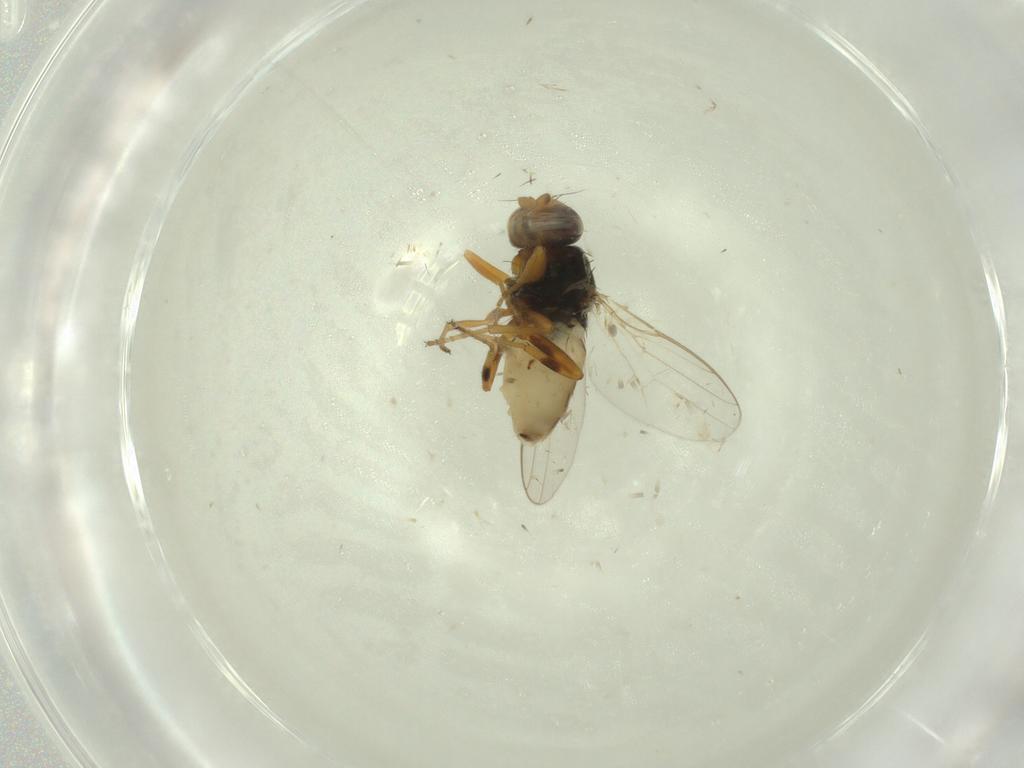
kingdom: Animalia
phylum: Arthropoda
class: Insecta
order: Diptera
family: Chloropidae
